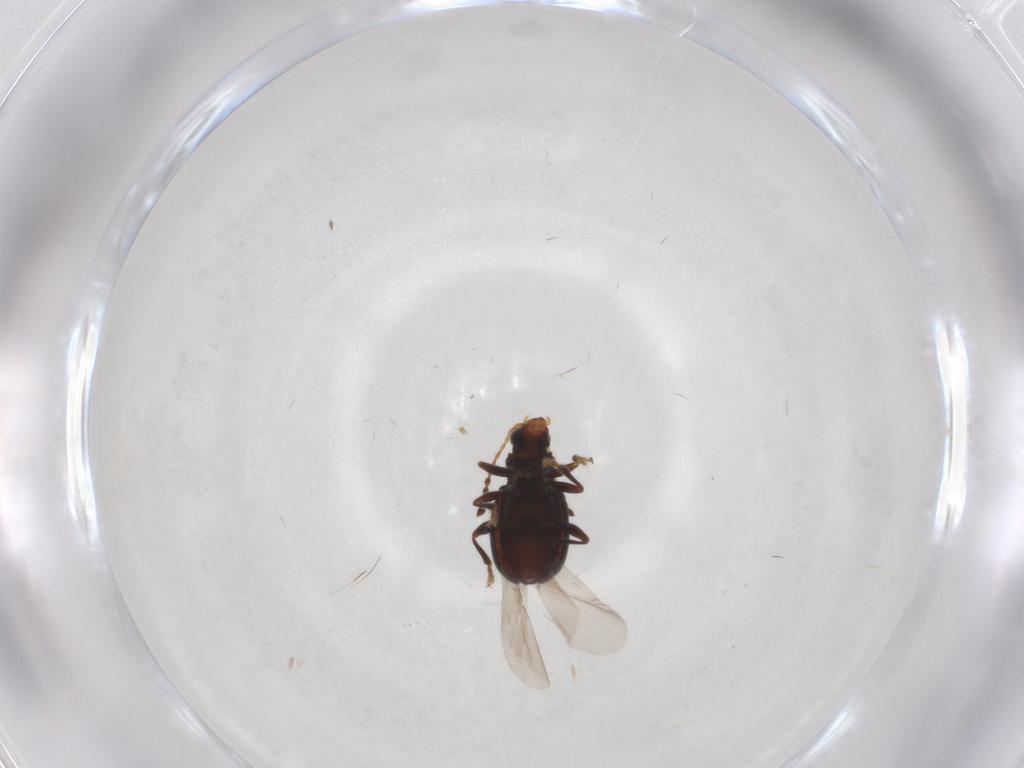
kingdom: Animalia
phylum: Arthropoda
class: Insecta
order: Coleoptera
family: Chrysomelidae
